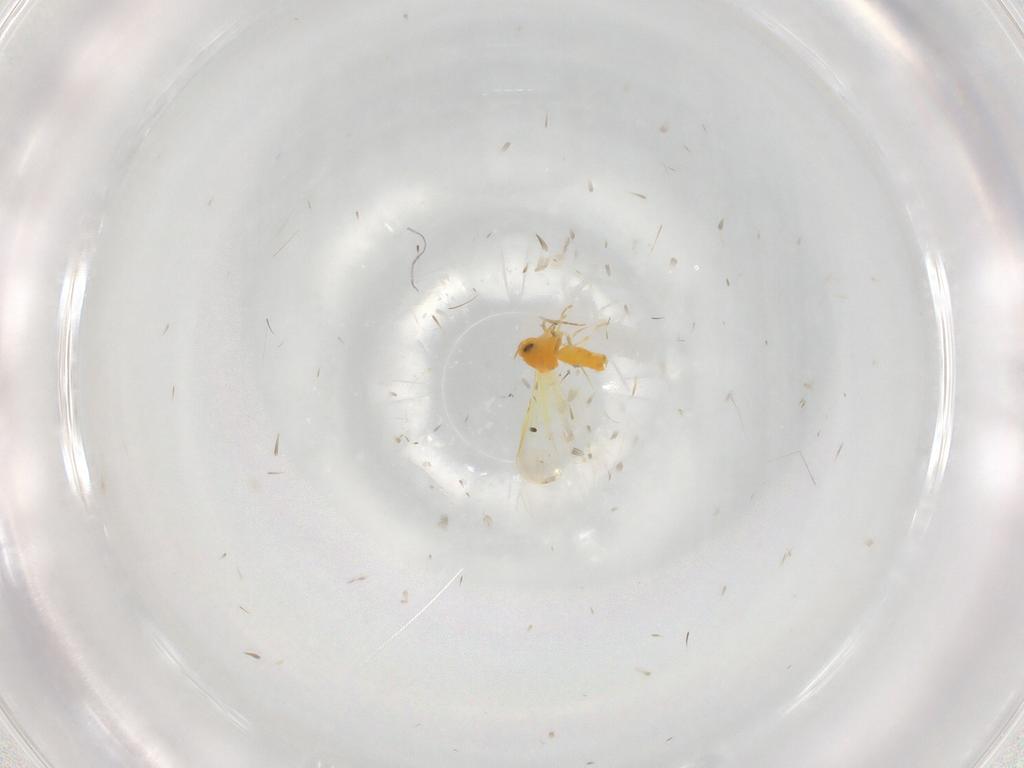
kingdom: Animalia
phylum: Arthropoda
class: Insecta
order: Hemiptera
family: Aleyrodidae
